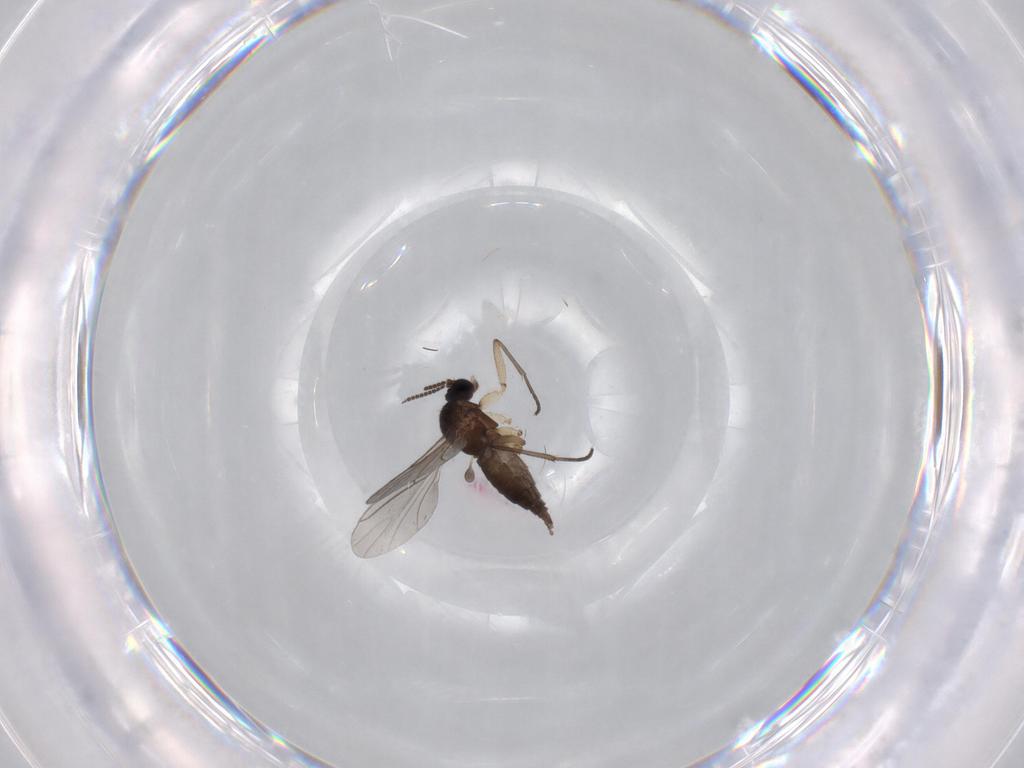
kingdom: Animalia
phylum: Arthropoda
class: Insecta
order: Diptera
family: Sciaridae
